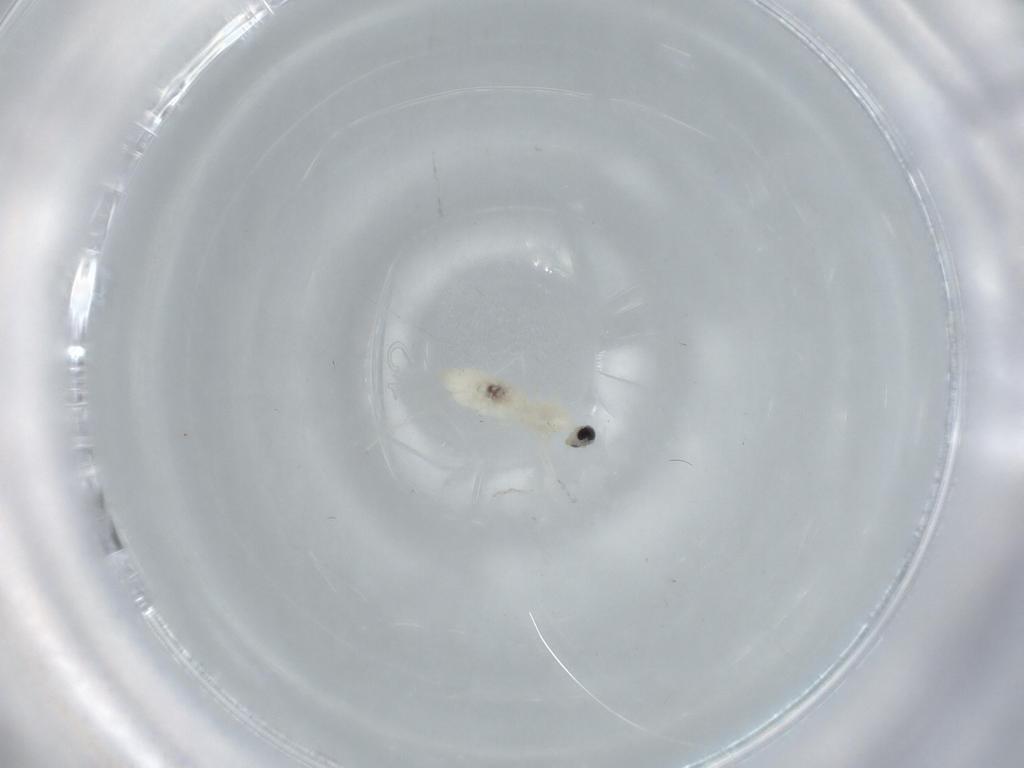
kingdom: Animalia
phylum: Arthropoda
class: Insecta
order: Diptera
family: Cecidomyiidae
